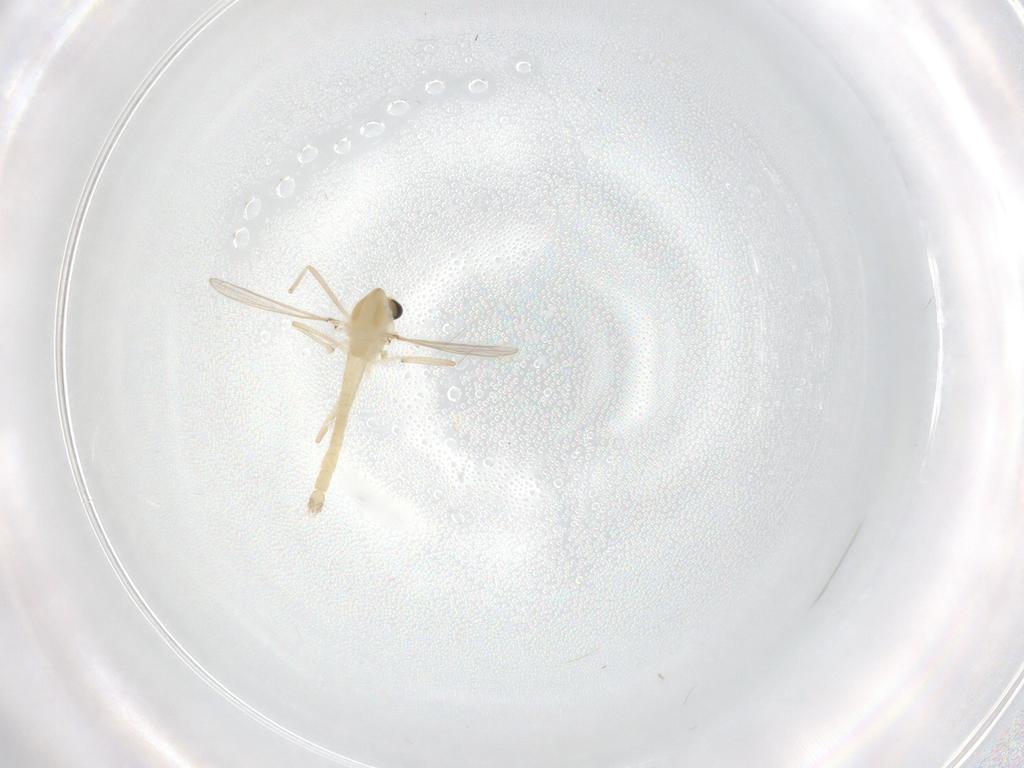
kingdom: Animalia
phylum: Arthropoda
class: Insecta
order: Diptera
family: Chironomidae
